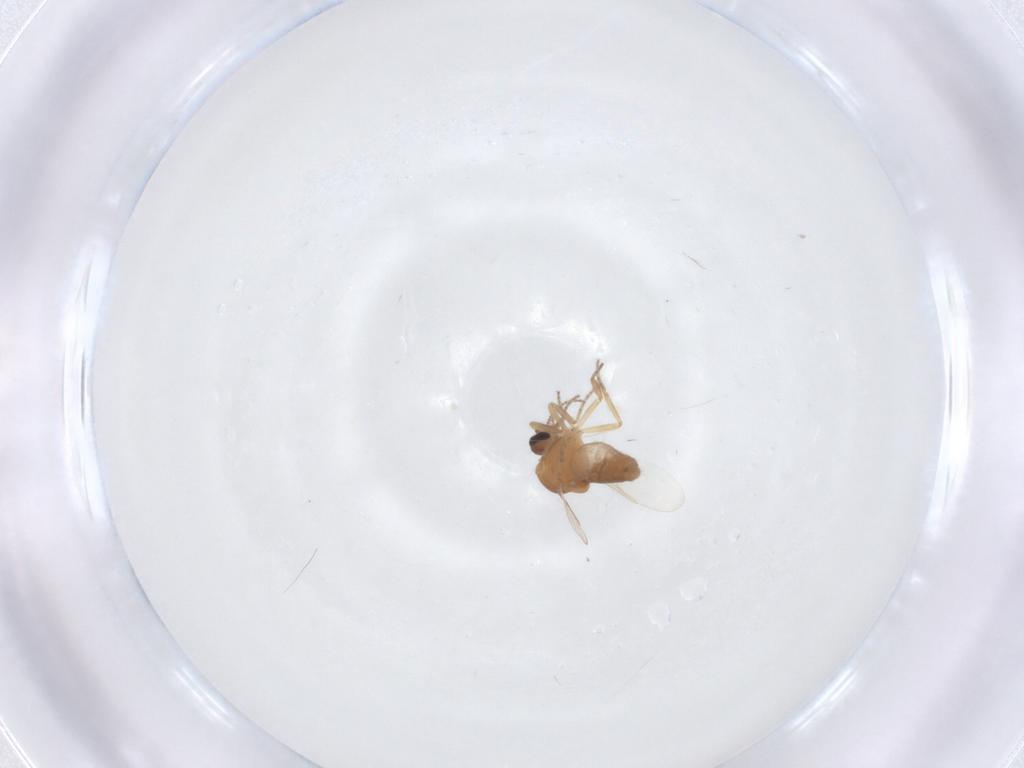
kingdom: Animalia
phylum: Arthropoda
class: Insecta
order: Diptera
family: Ceratopogonidae
